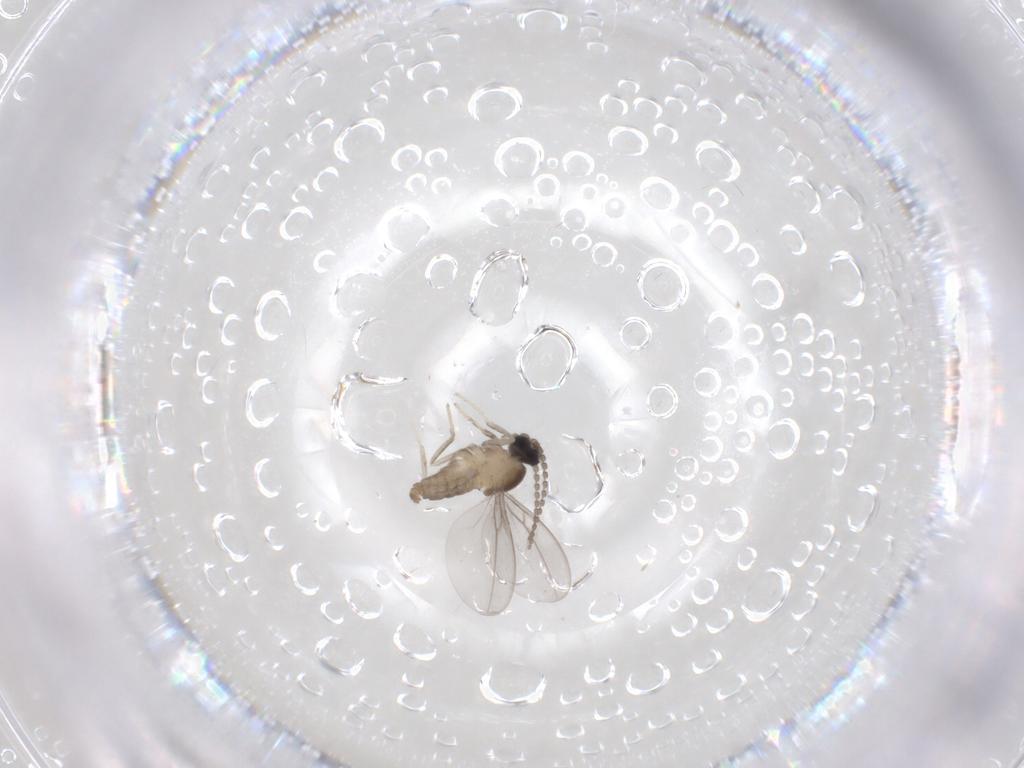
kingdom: Animalia
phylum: Arthropoda
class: Insecta
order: Diptera
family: Cecidomyiidae
